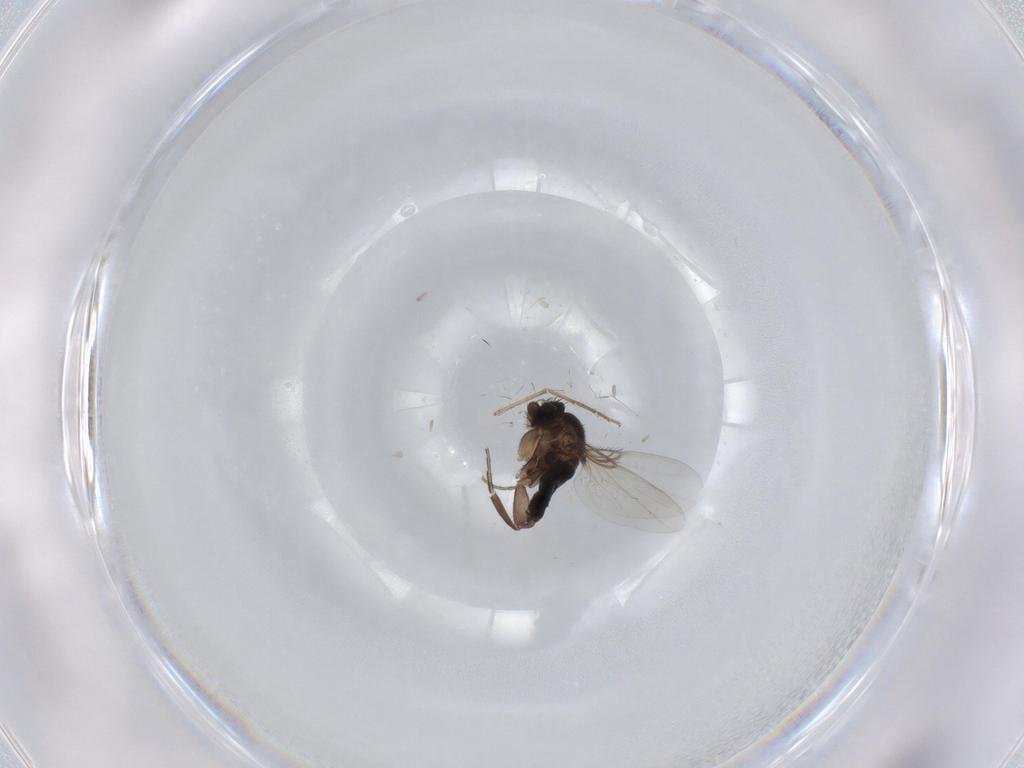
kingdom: Animalia
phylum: Arthropoda
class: Insecta
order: Diptera
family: Phoridae
